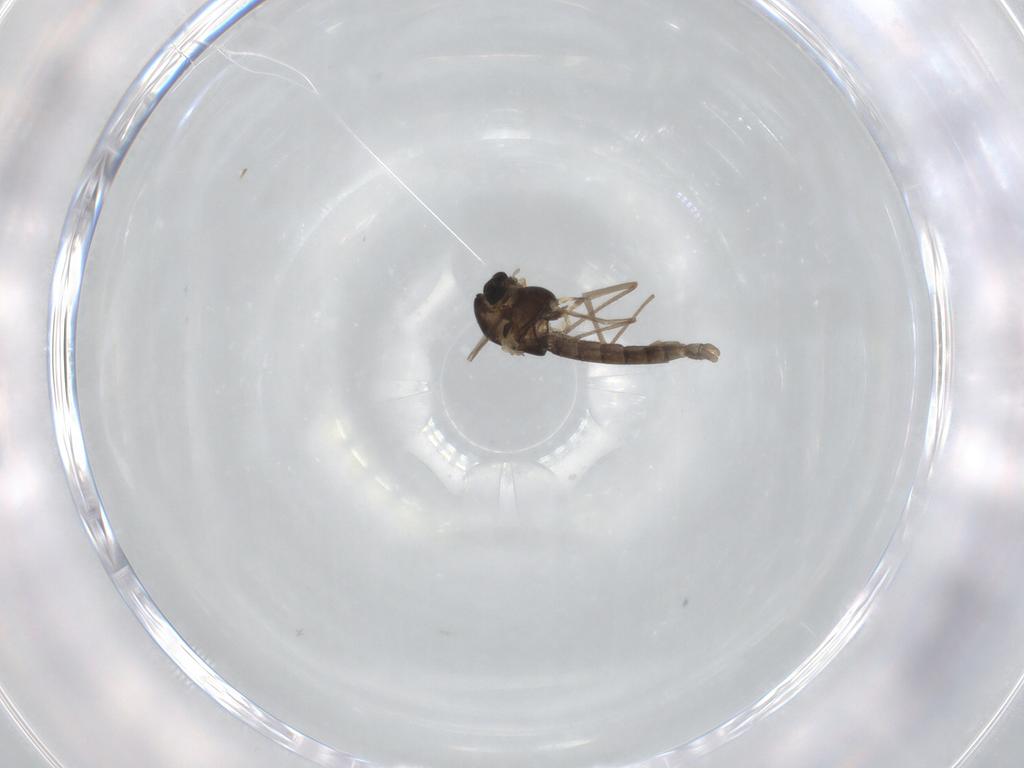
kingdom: Animalia
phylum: Arthropoda
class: Insecta
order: Diptera
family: Chironomidae
